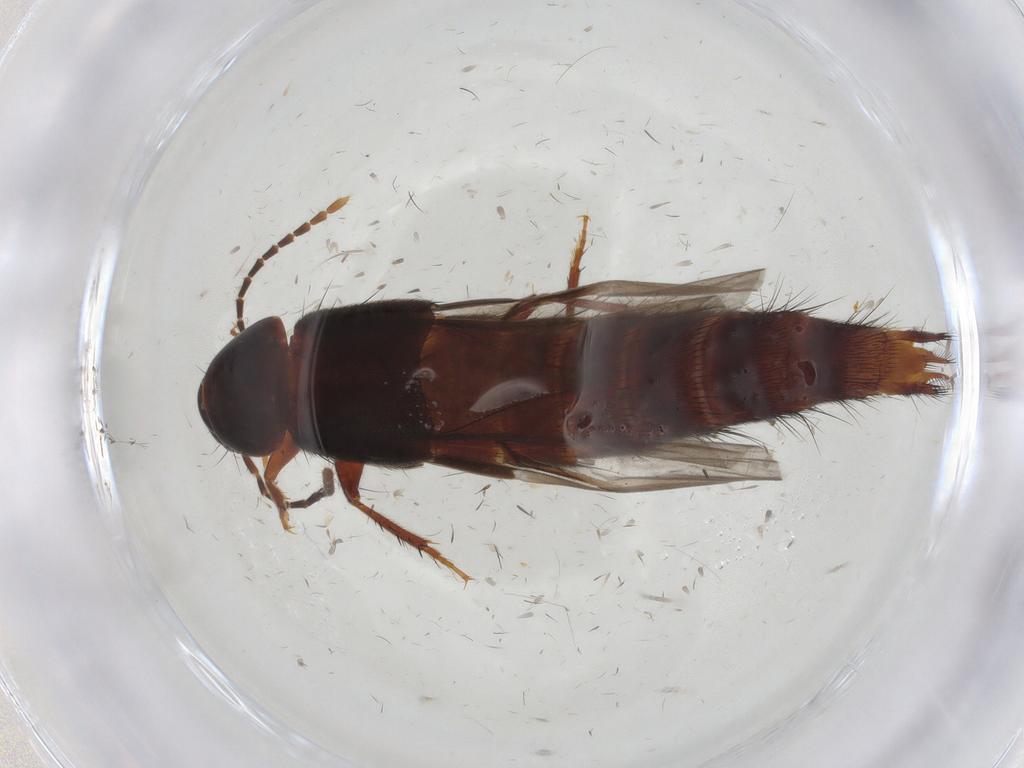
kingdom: Animalia
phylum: Arthropoda
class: Insecta
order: Coleoptera
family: Staphylinidae
